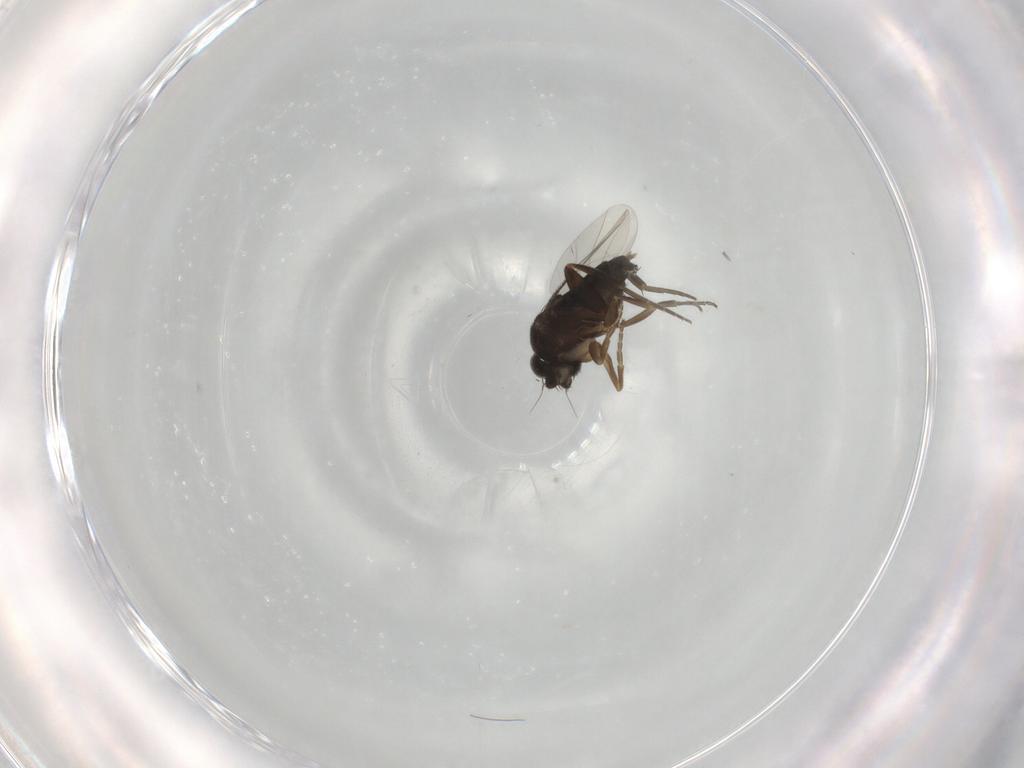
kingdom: Animalia
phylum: Arthropoda
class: Insecta
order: Diptera
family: Phoridae
